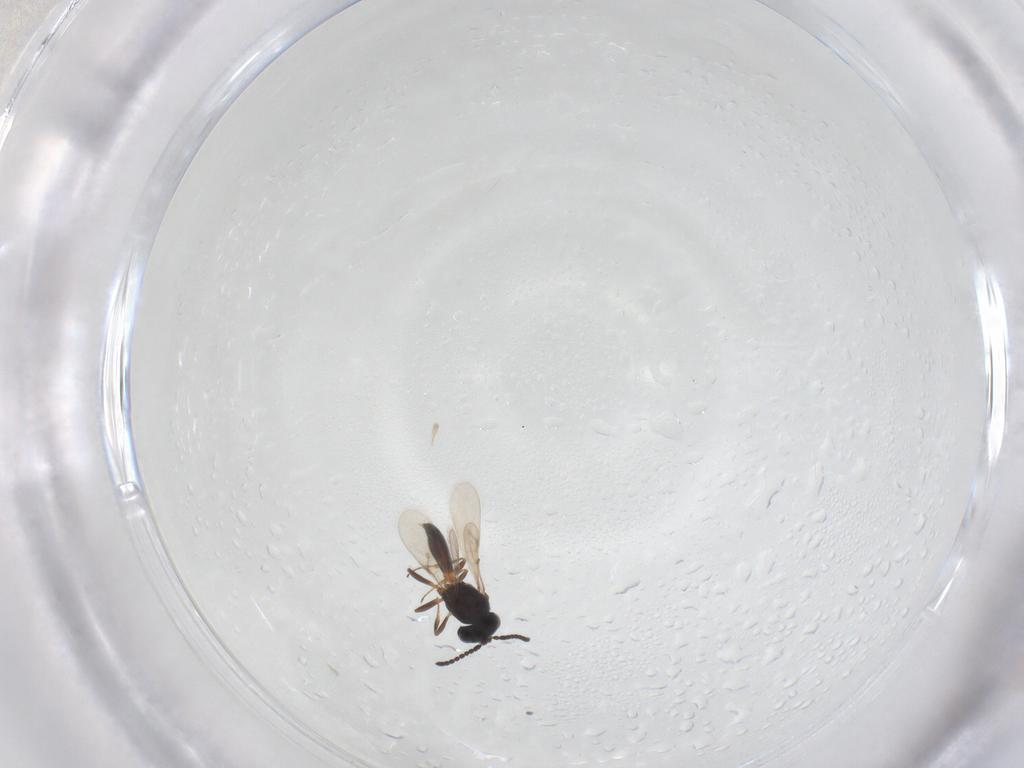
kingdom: Animalia
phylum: Arthropoda
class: Insecta
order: Hymenoptera
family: Scelionidae
